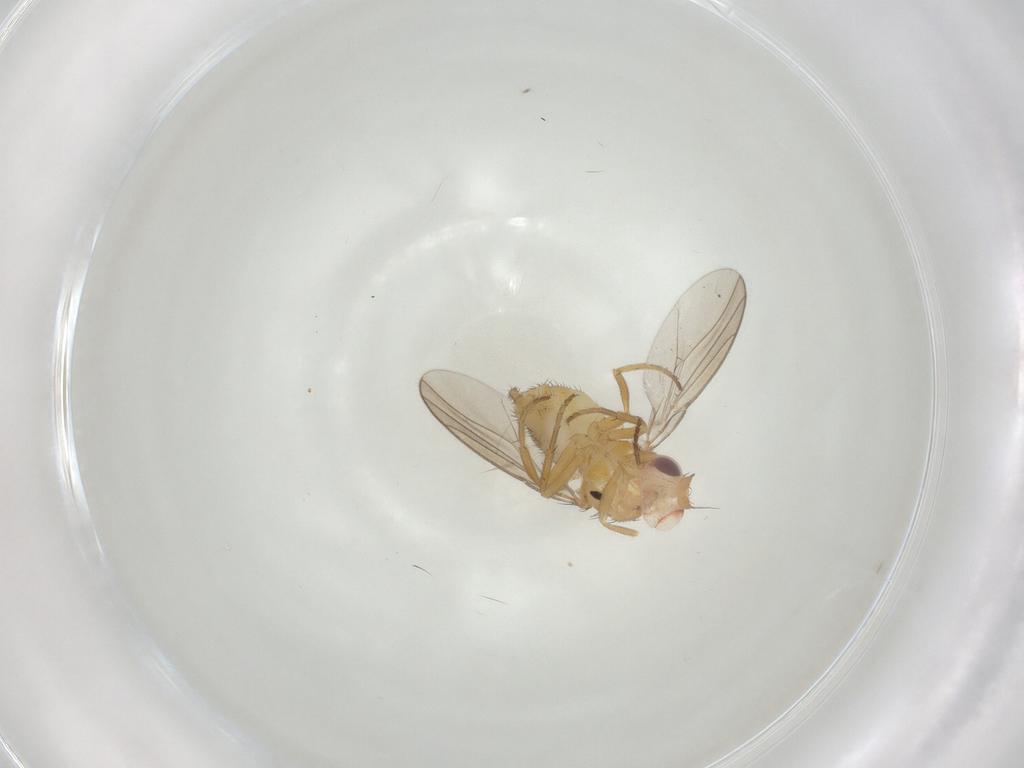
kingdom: Animalia
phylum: Arthropoda
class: Insecta
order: Diptera
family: Chloropidae
